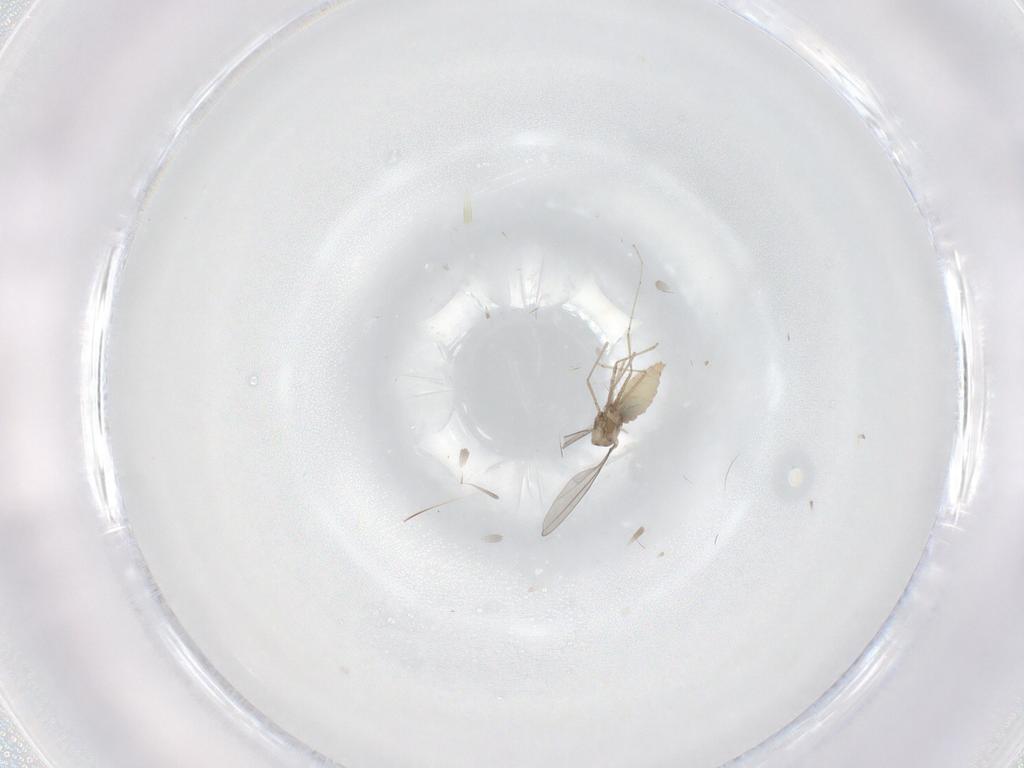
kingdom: Animalia
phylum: Arthropoda
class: Insecta
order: Diptera
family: Cecidomyiidae
